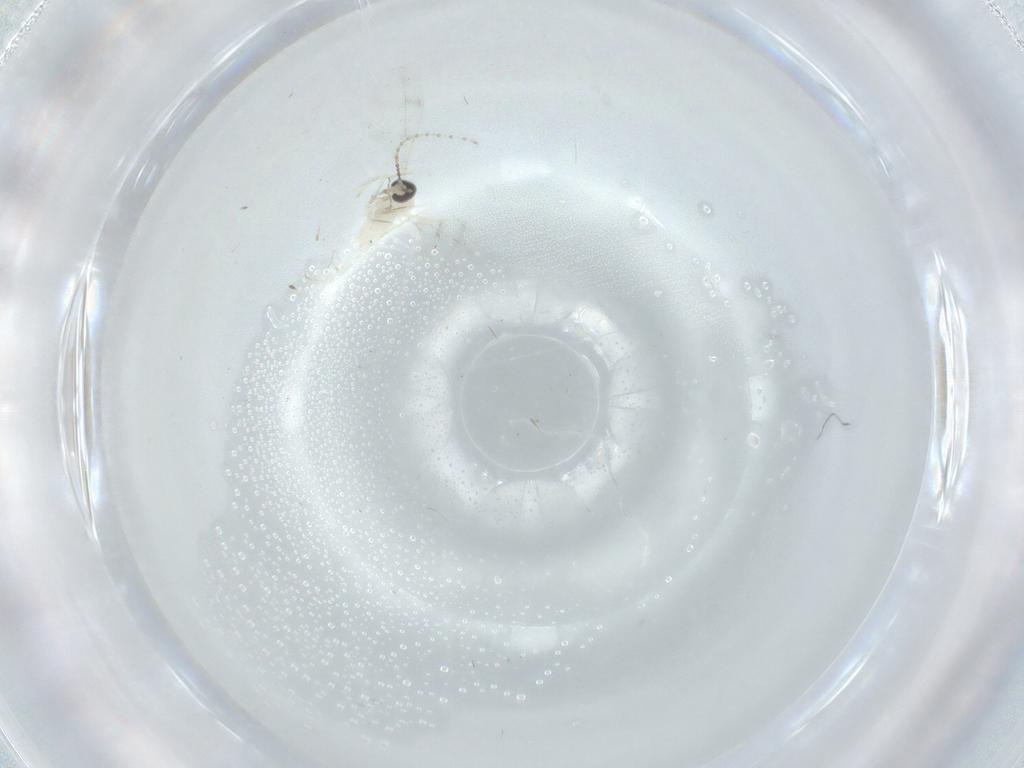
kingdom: Animalia
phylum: Arthropoda
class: Insecta
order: Diptera
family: Cecidomyiidae
